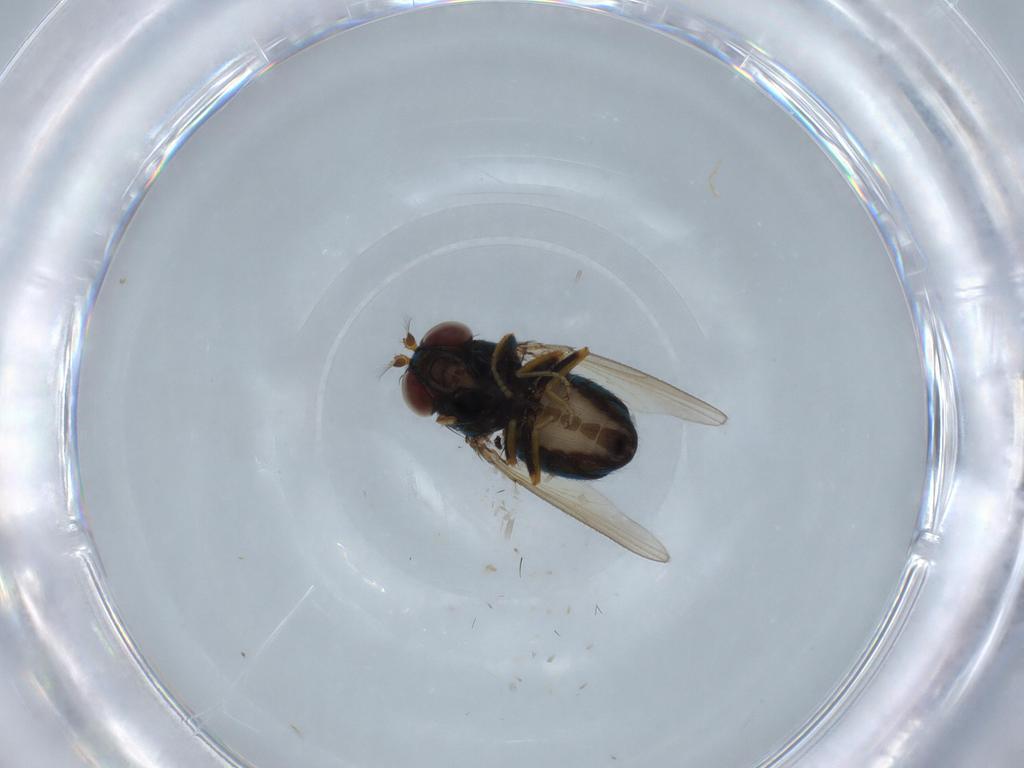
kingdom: Animalia
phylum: Arthropoda
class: Insecta
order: Diptera
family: Ephydridae
